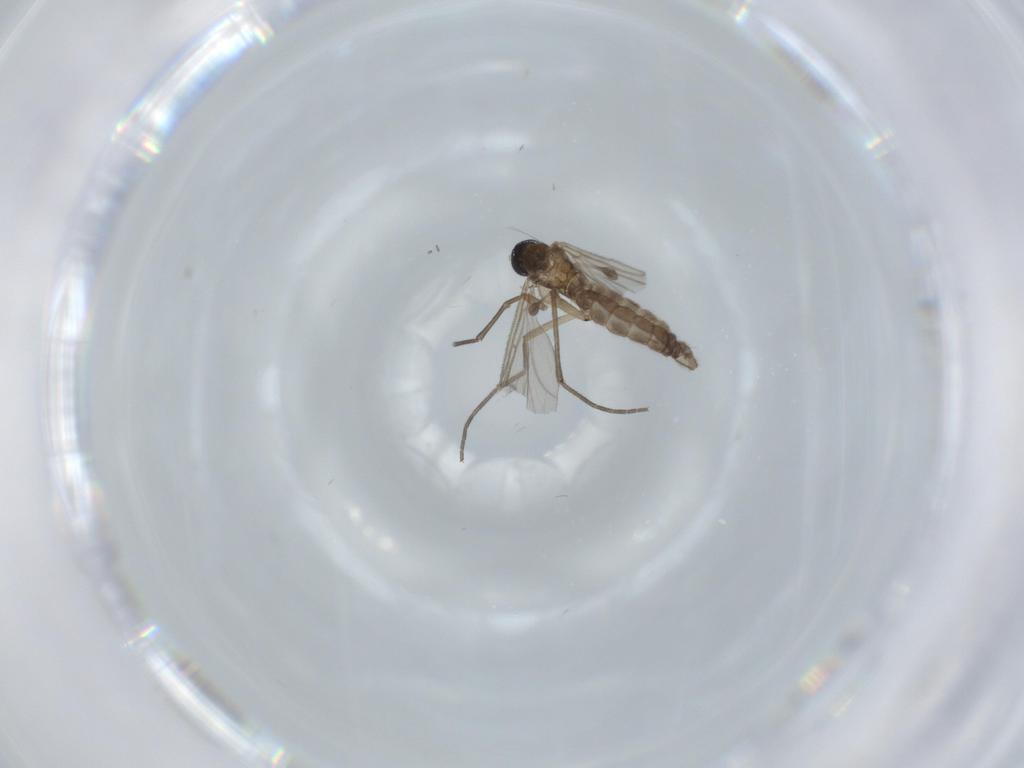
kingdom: Animalia
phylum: Arthropoda
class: Insecta
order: Diptera
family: Sciaridae
